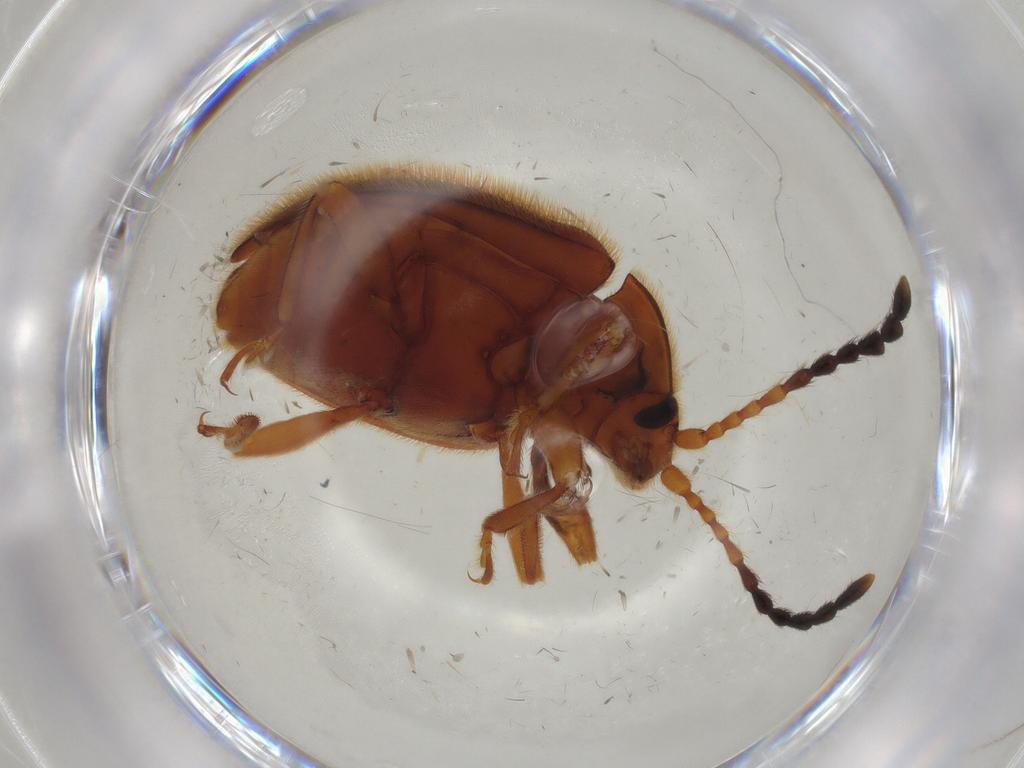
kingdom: Animalia
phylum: Arthropoda
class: Insecta
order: Coleoptera
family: Endomychidae
